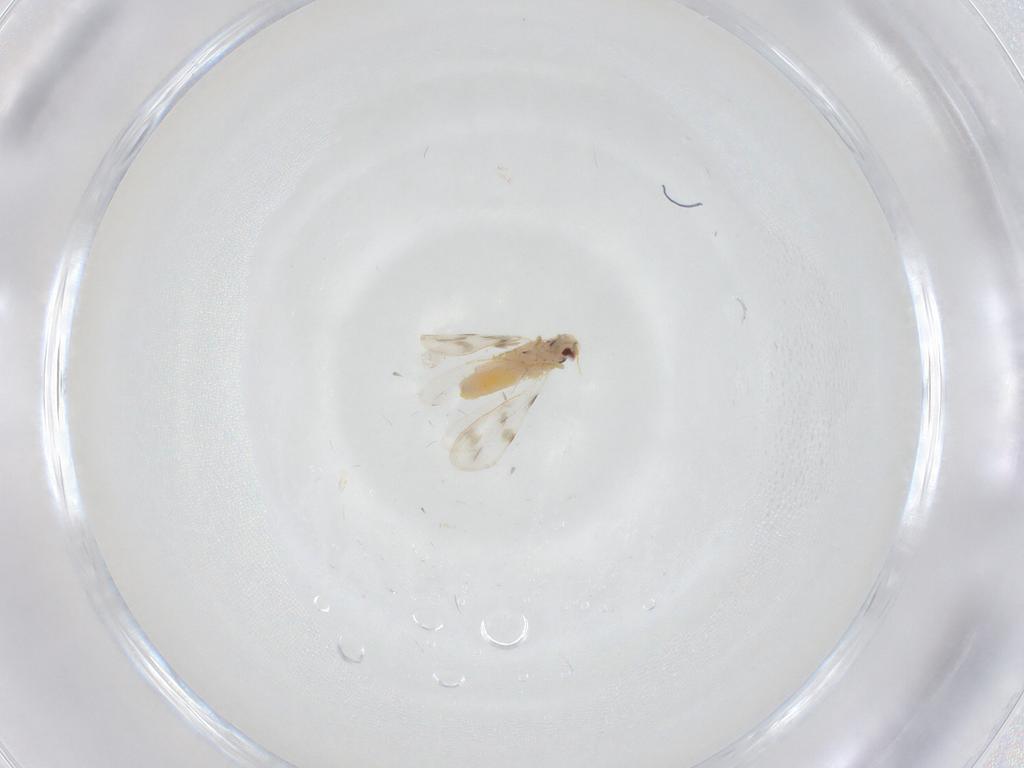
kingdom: Animalia
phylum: Arthropoda
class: Insecta
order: Hemiptera
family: Aleyrodidae
